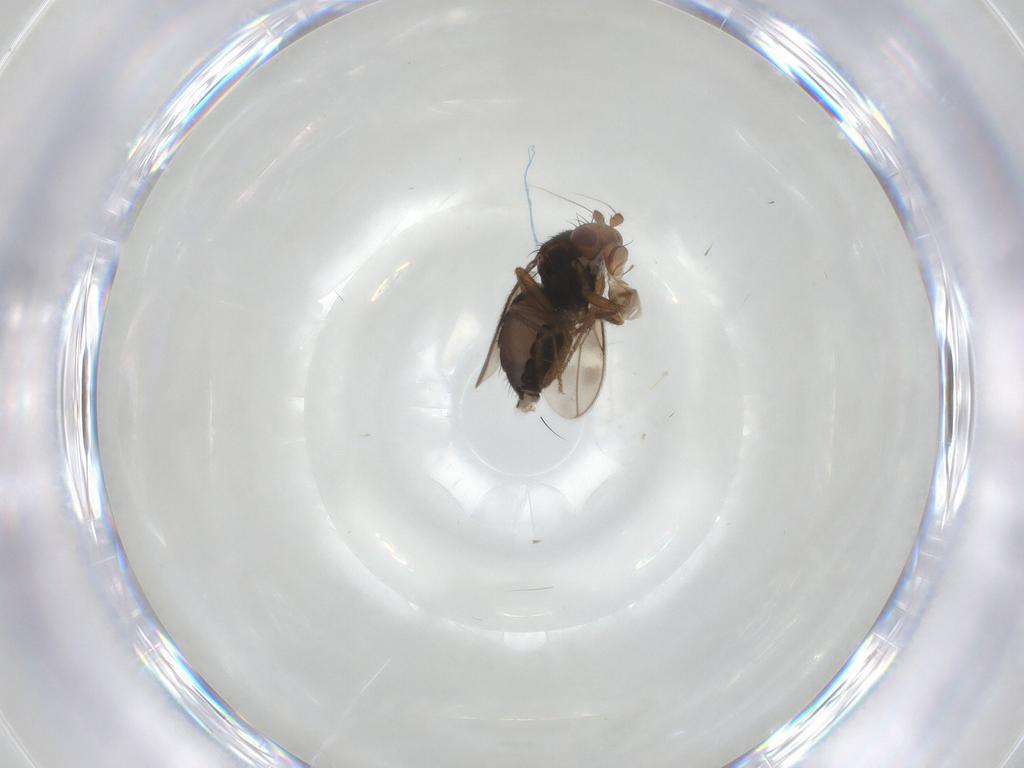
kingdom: Animalia
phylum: Arthropoda
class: Insecta
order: Diptera
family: Sphaeroceridae
